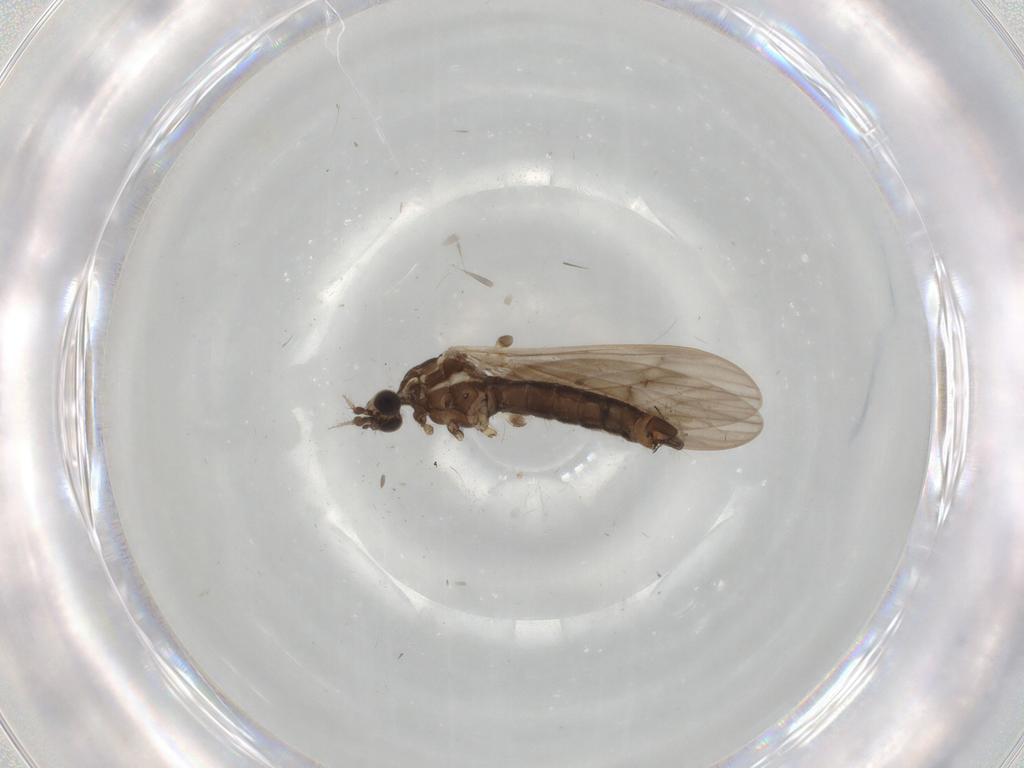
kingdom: Animalia
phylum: Arthropoda
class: Insecta
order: Diptera
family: Limoniidae
